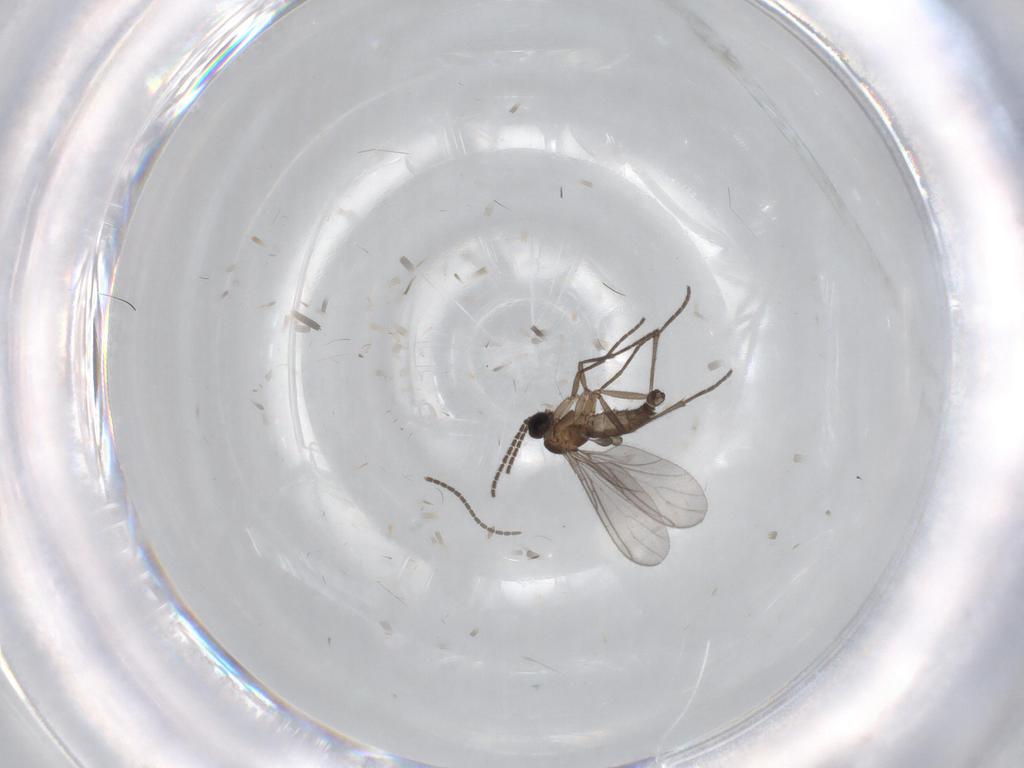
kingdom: Animalia
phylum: Arthropoda
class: Insecta
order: Diptera
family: Sciaridae
